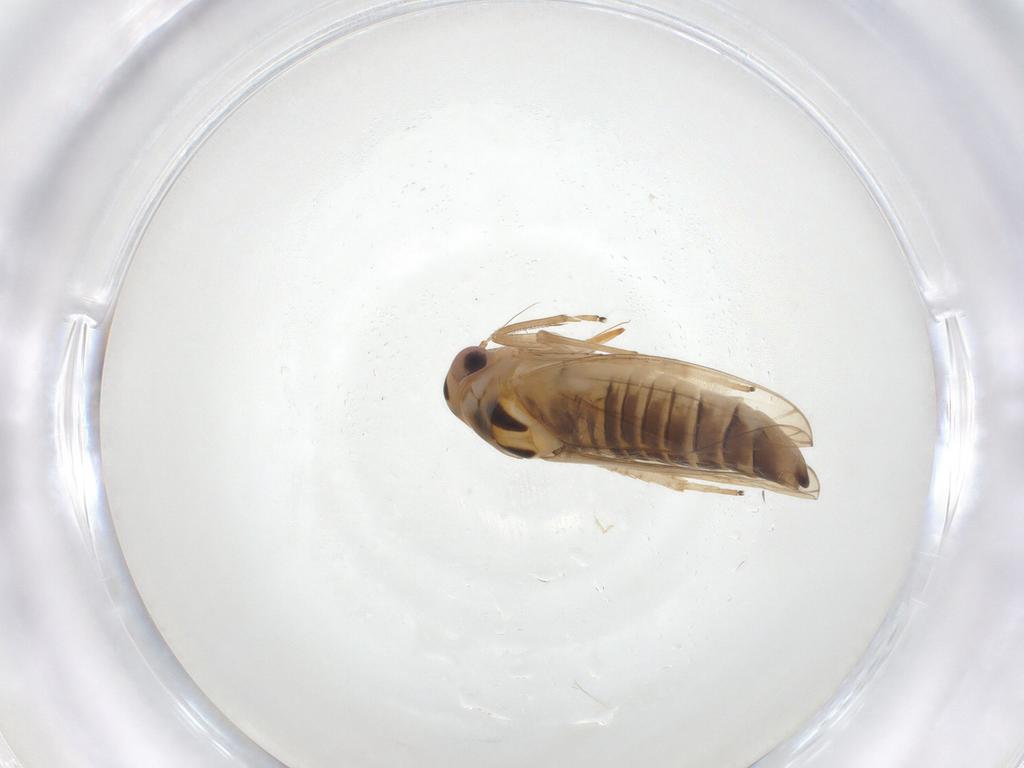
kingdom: Animalia
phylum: Arthropoda
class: Insecta
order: Hemiptera
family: Cicadellidae
